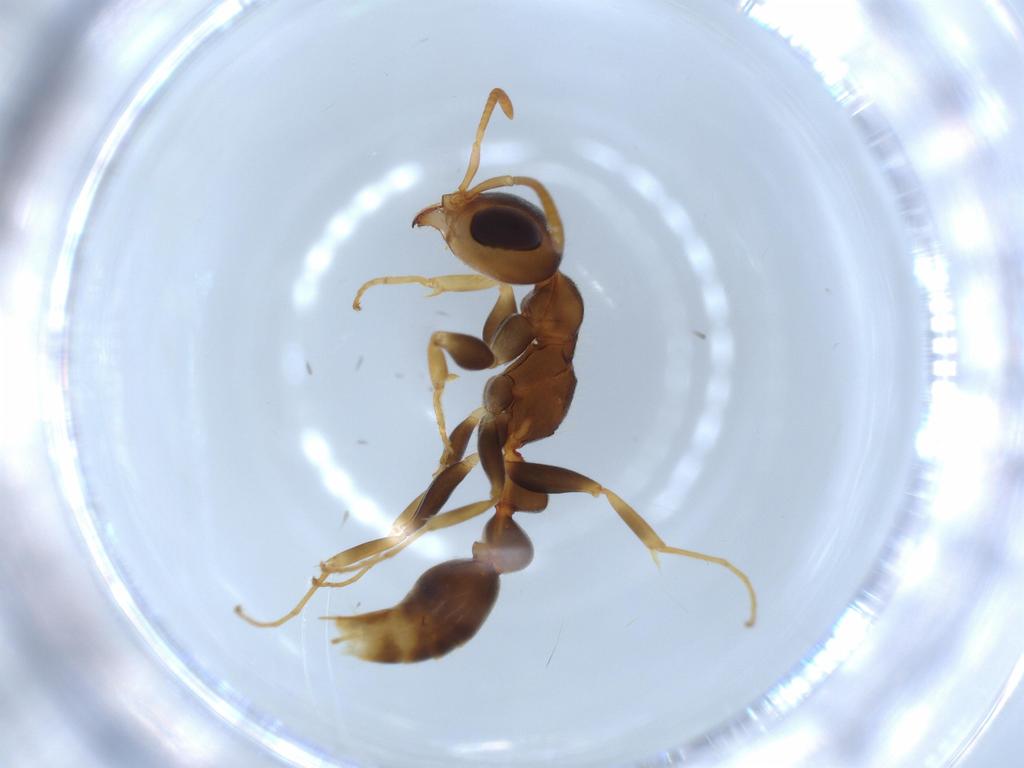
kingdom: Animalia
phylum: Arthropoda
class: Insecta
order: Hymenoptera
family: Formicidae
